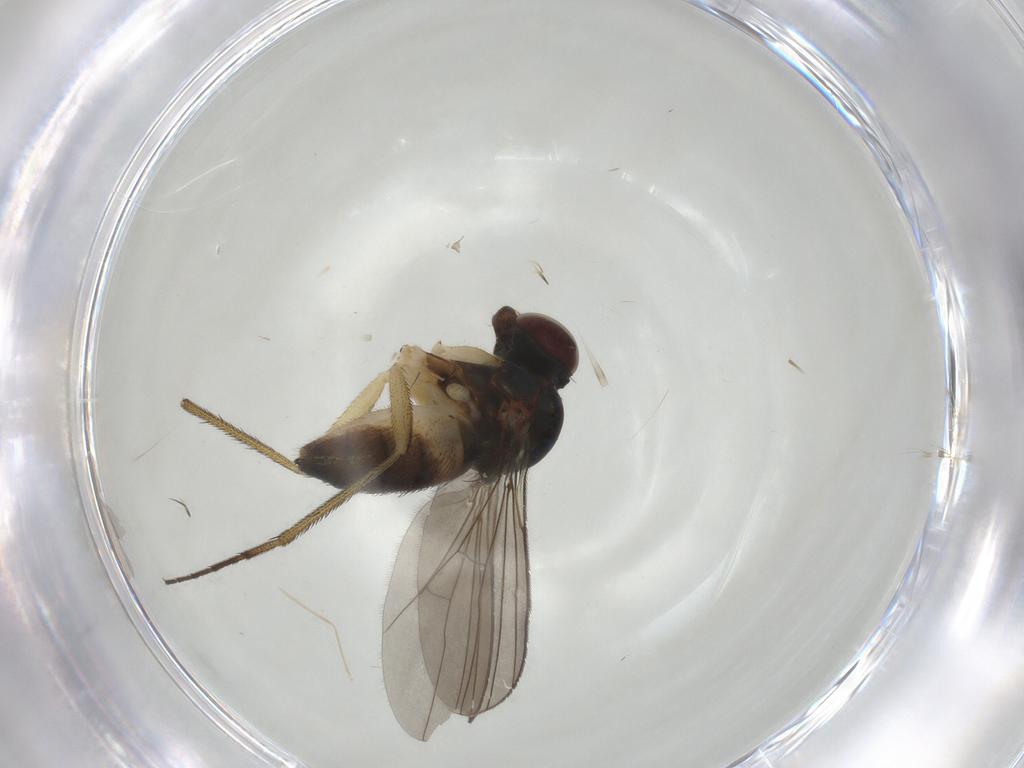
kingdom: Animalia
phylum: Arthropoda
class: Insecta
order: Diptera
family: Dolichopodidae
